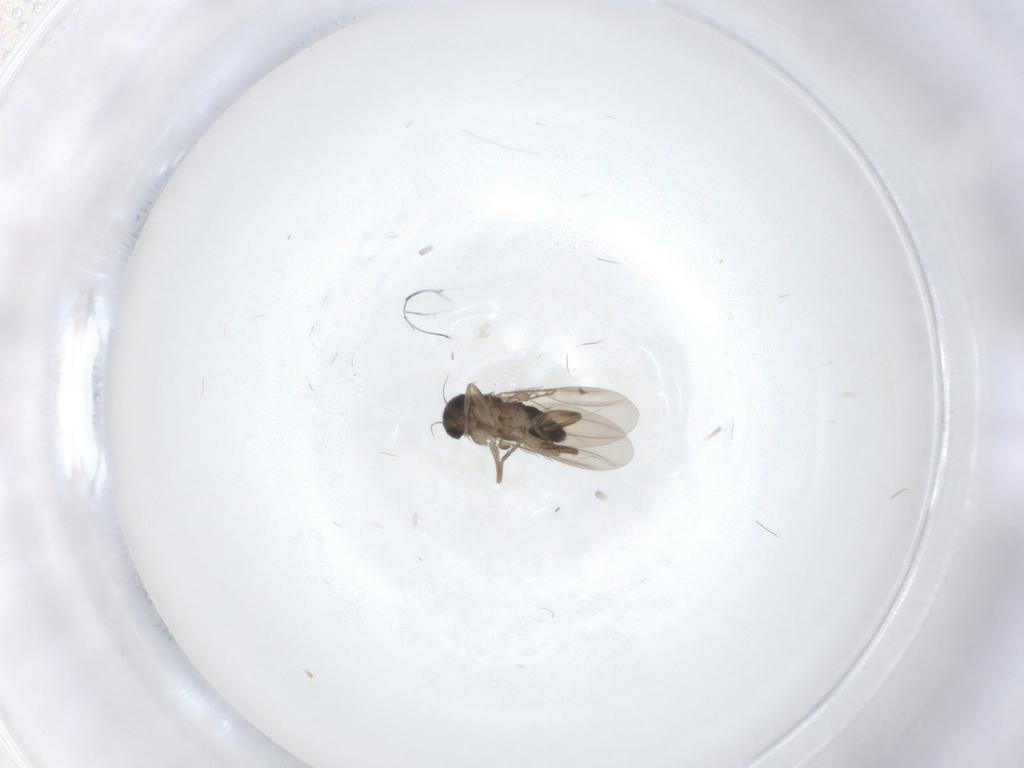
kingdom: Animalia
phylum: Arthropoda
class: Insecta
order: Diptera
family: Phoridae
